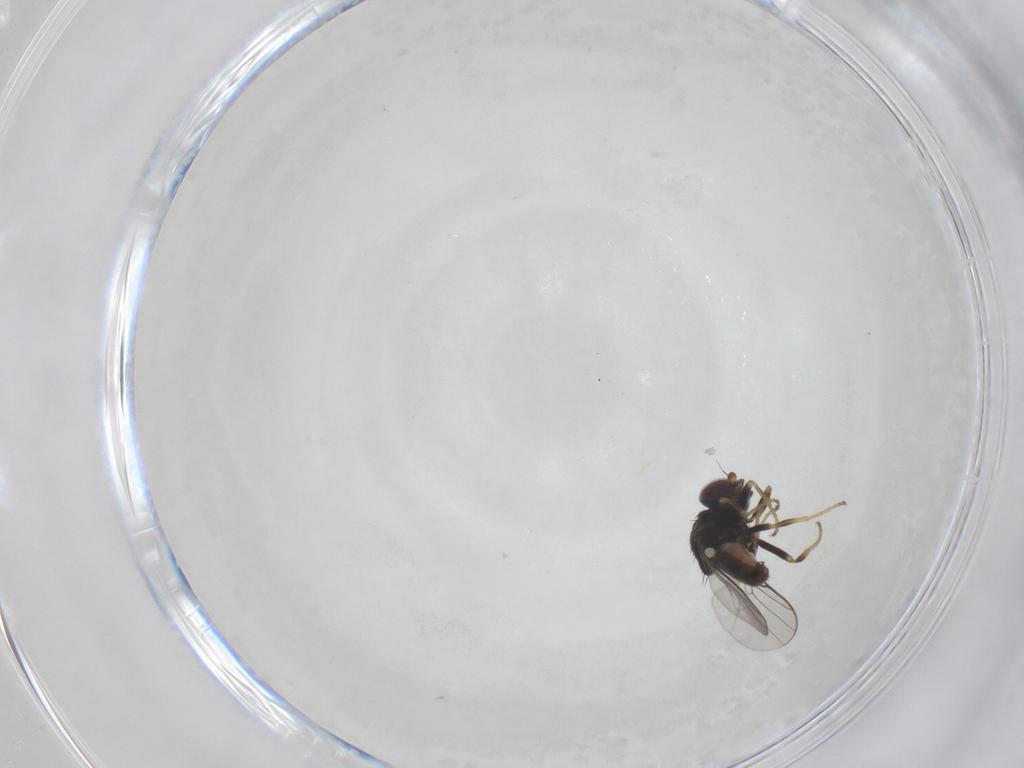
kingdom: Animalia
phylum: Arthropoda
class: Insecta
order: Diptera
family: Chloropidae
